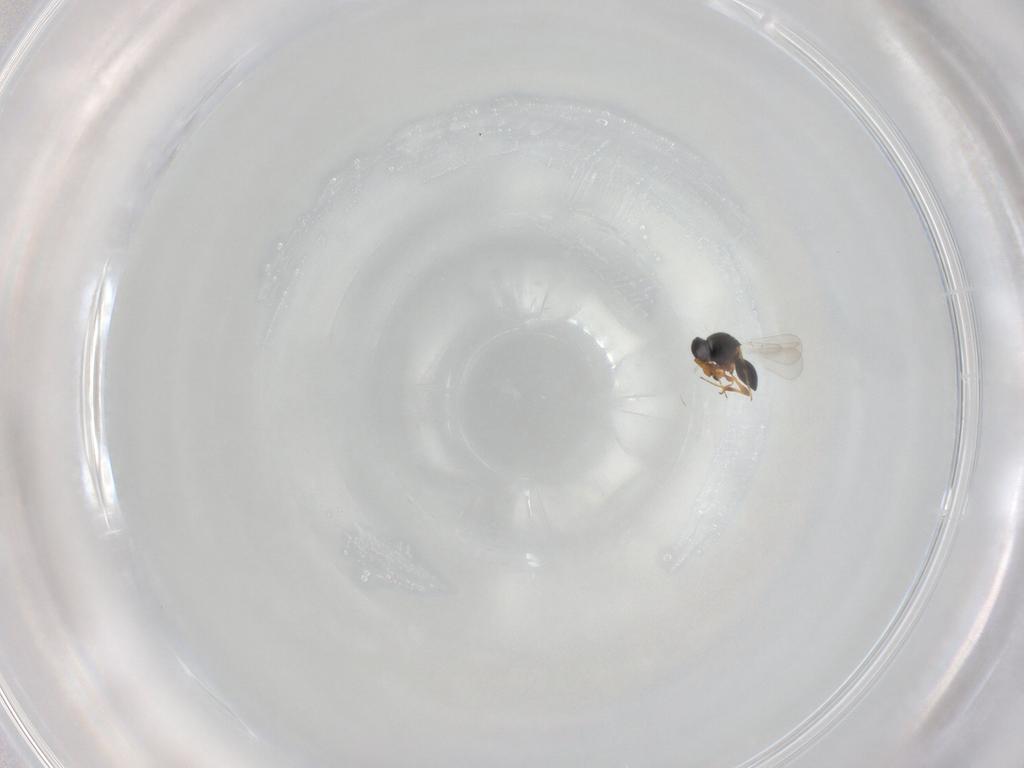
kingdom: Animalia
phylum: Arthropoda
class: Insecta
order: Hymenoptera
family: Platygastridae
